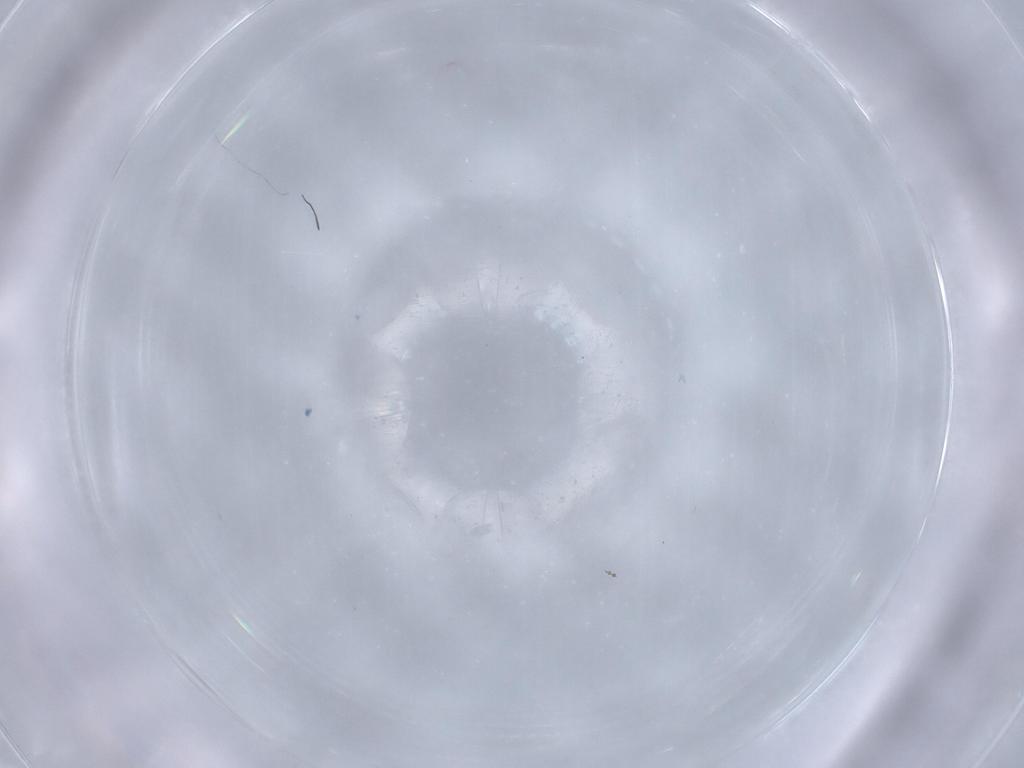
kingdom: Animalia
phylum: Arthropoda
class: Insecta
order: Diptera
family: Cecidomyiidae
